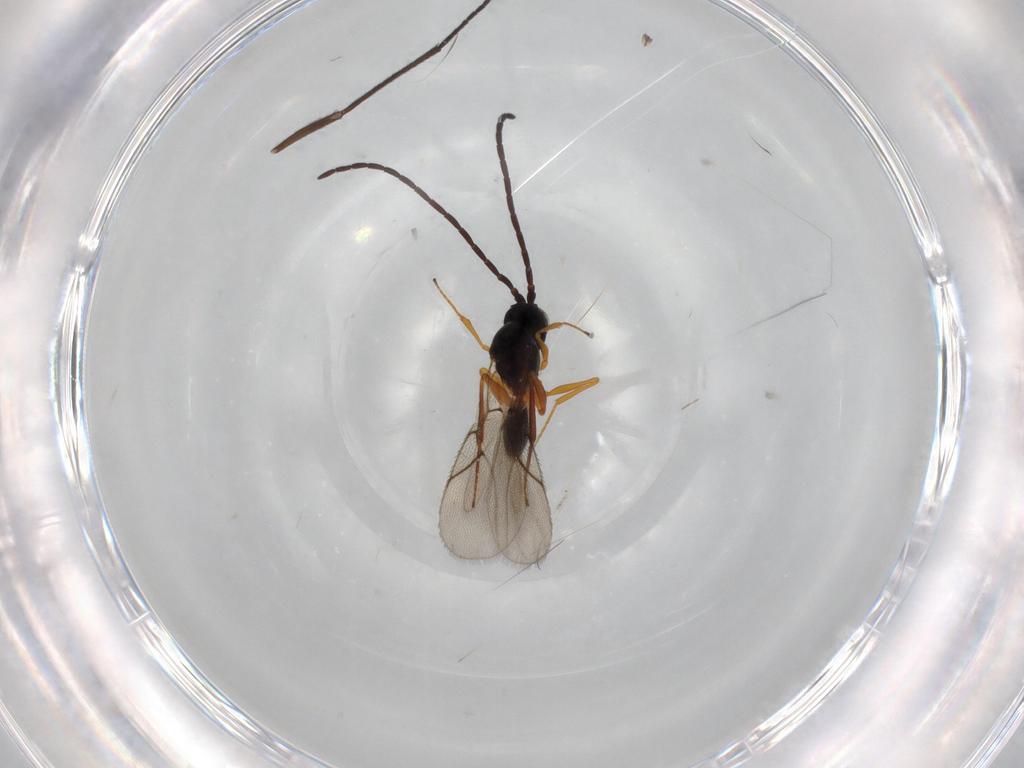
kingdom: Animalia
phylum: Arthropoda
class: Insecta
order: Hymenoptera
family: Figitidae
